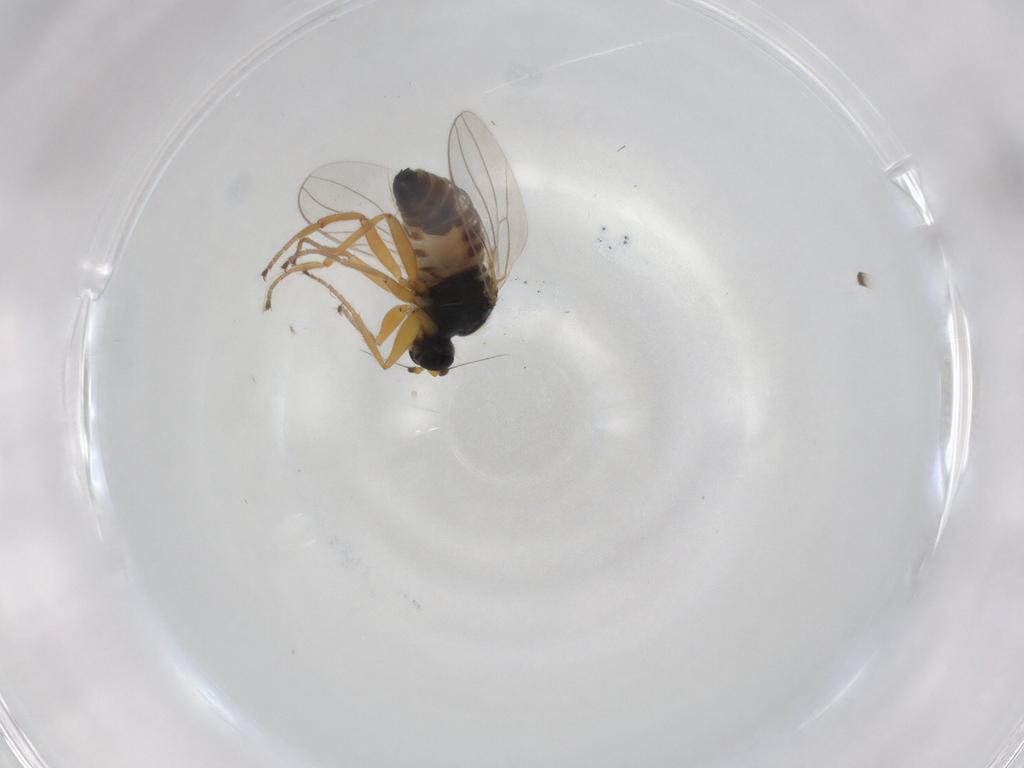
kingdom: Animalia
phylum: Arthropoda
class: Insecta
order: Diptera
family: Hybotidae
